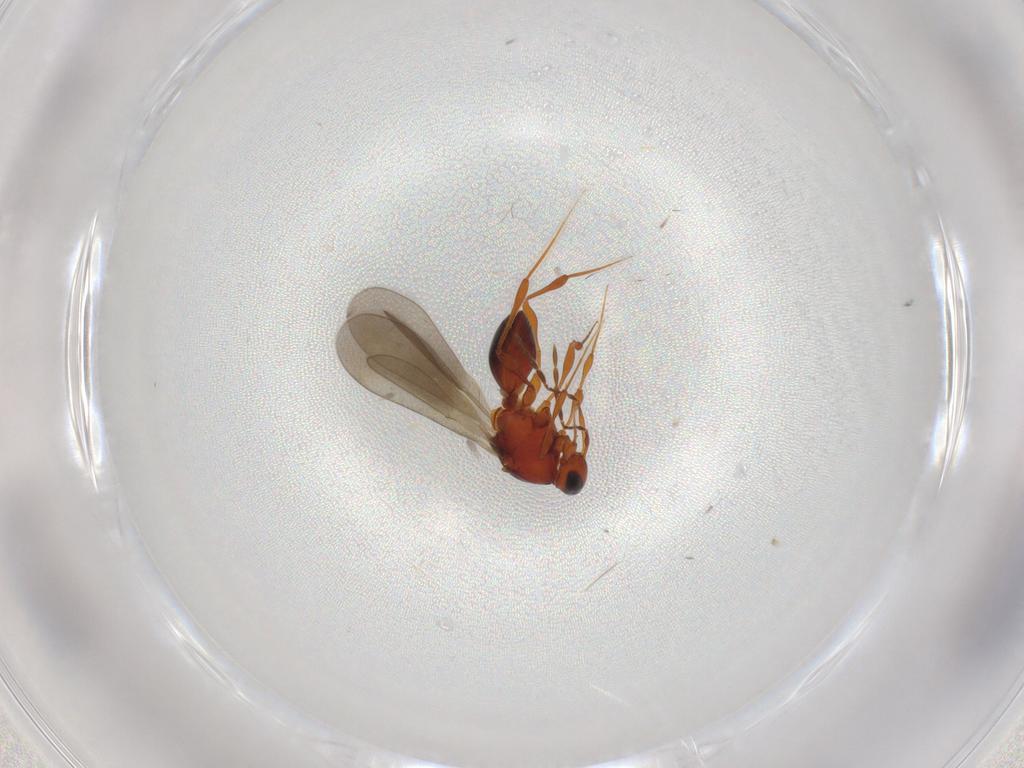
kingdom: Animalia
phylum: Arthropoda
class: Insecta
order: Hymenoptera
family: Platygastridae
